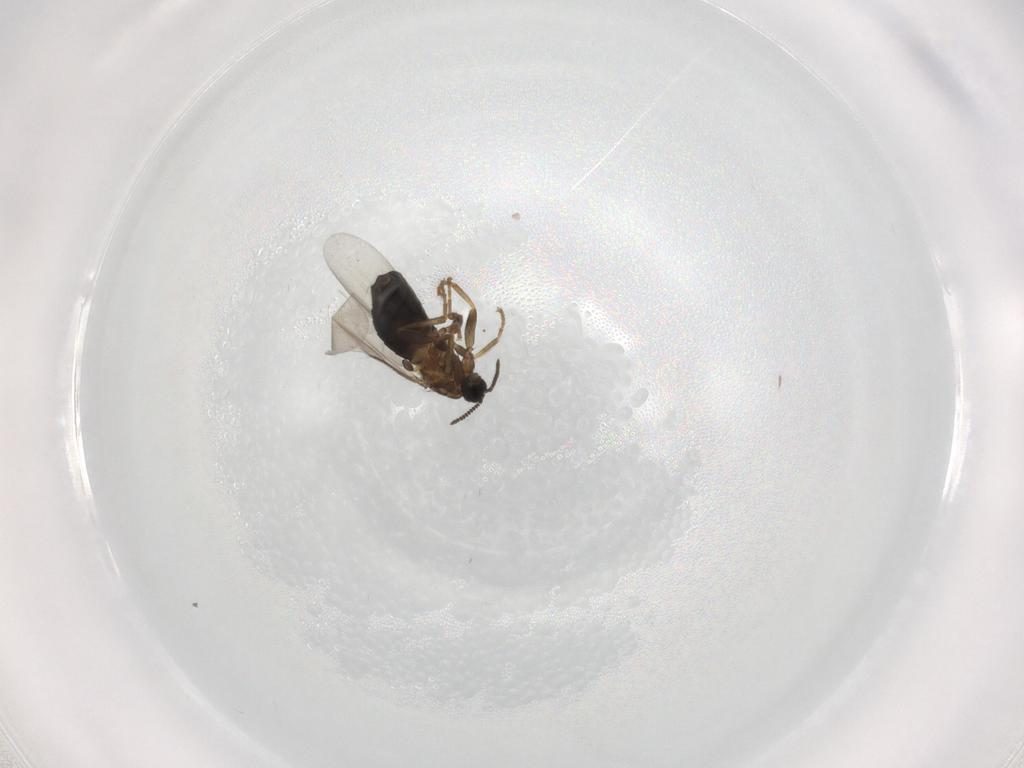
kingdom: Animalia
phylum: Arthropoda
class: Insecta
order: Diptera
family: Scatopsidae
